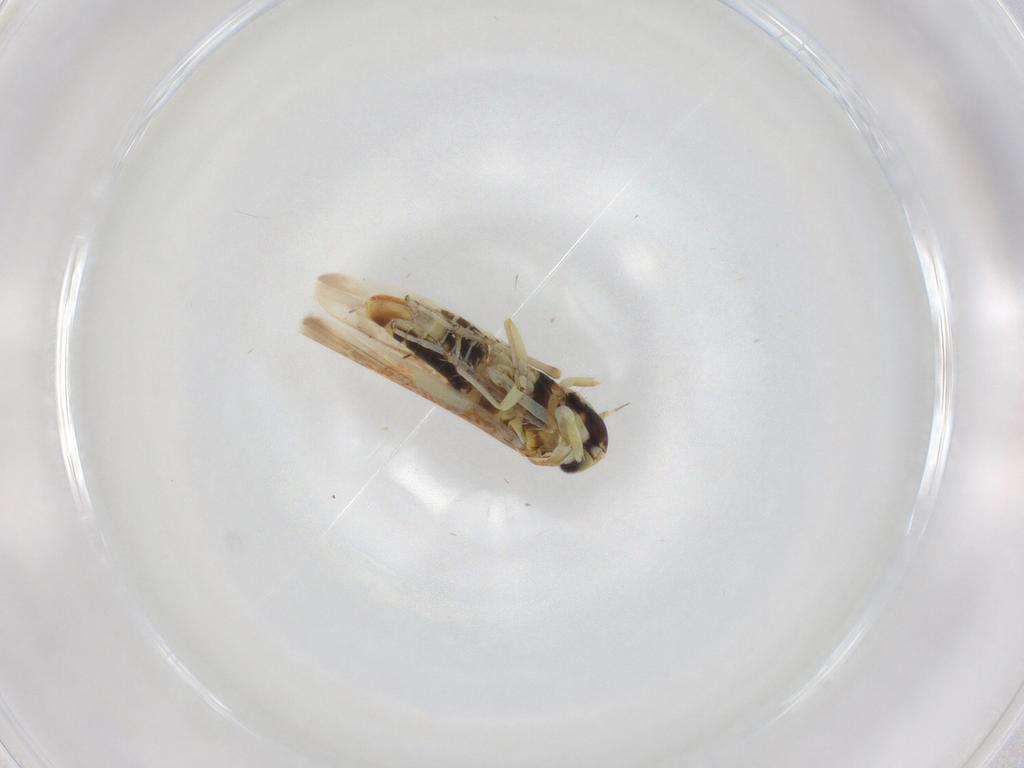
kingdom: Animalia
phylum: Arthropoda
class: Insecta
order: Hemiptera
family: Cicadellidae
